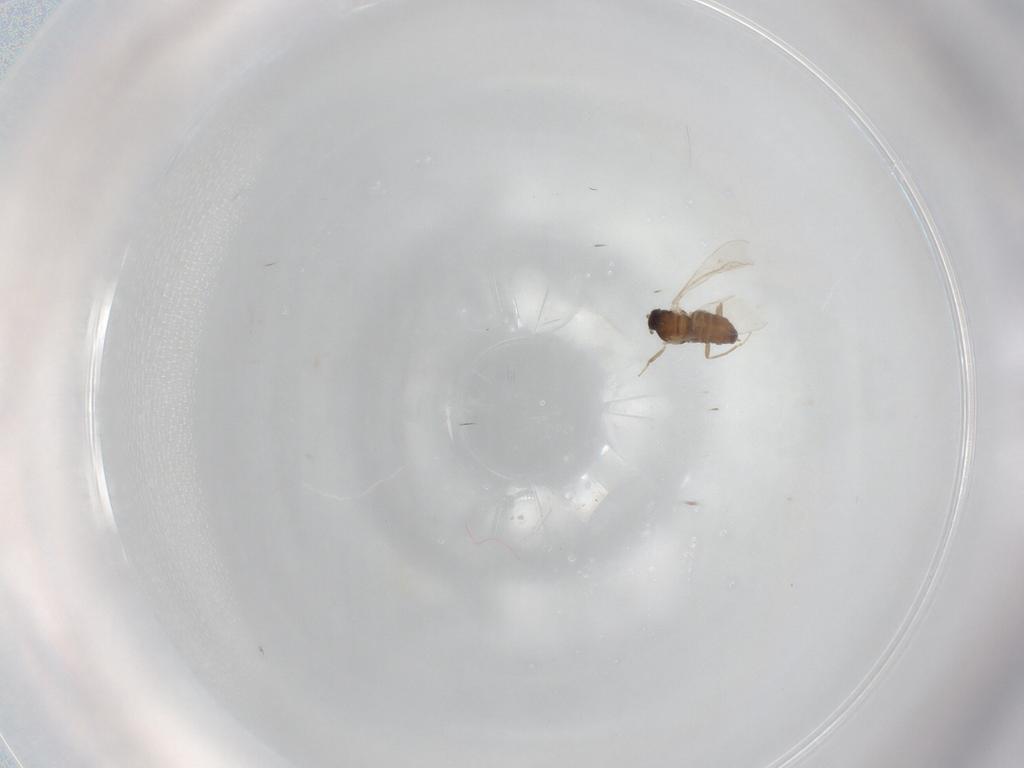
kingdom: Animalia
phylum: Arthropoda
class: Insecta
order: Diptera
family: Cecidomyiidae
